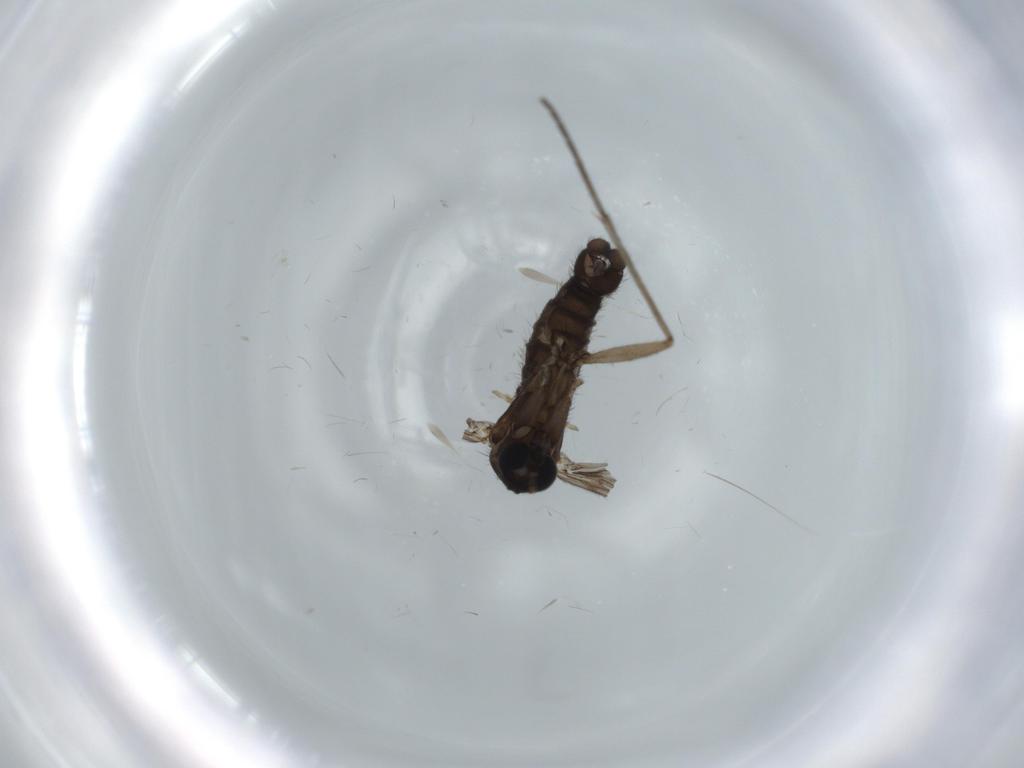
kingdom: Animalia
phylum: Arthropoda
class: Insecta
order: Diptera
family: Sciaridae
